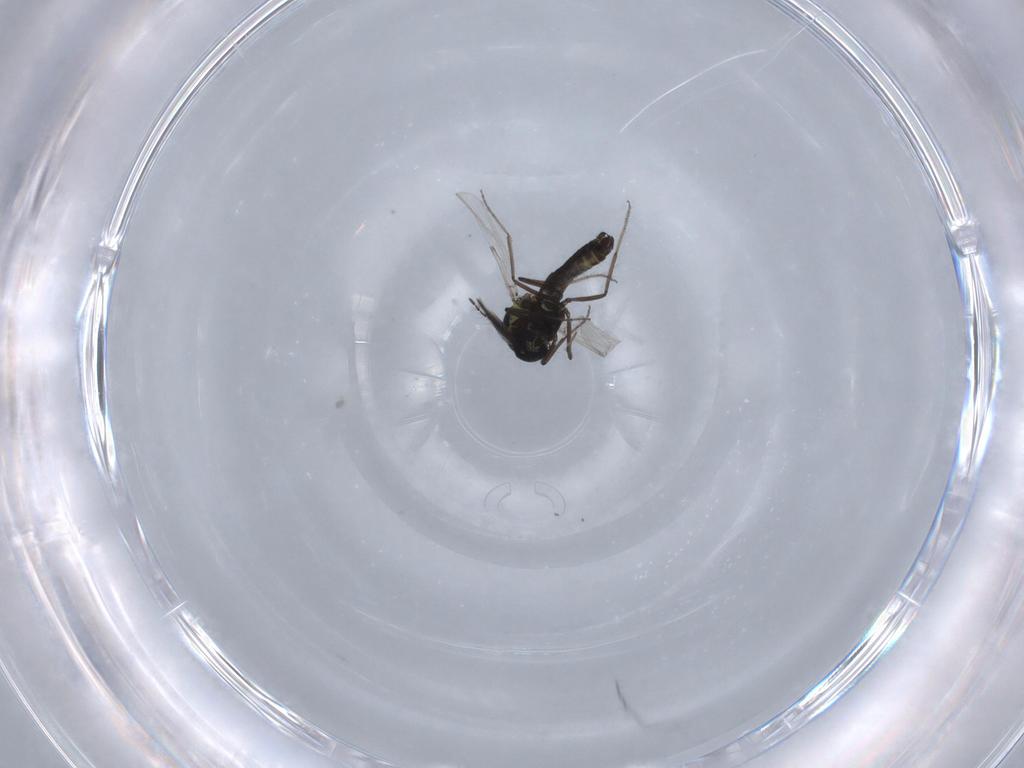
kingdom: Animalia
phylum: Arthropoda
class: Insecta
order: Diptera
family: Ceratopogonidae
